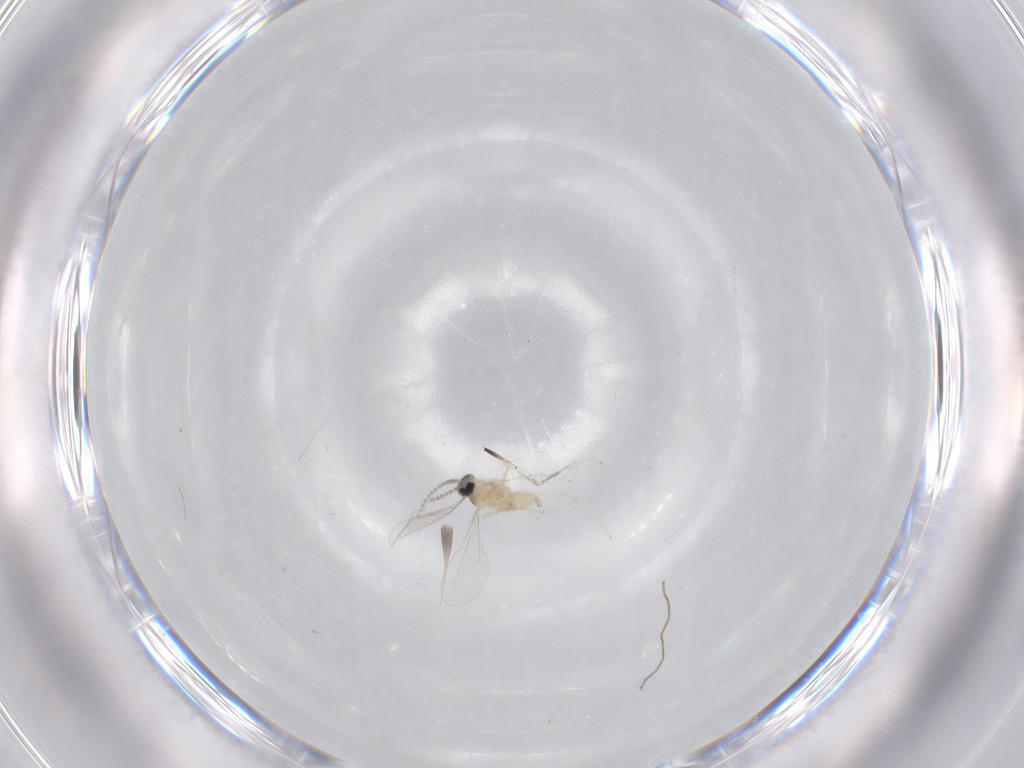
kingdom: Animalia
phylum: Arthropoda
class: Insecta
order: Diptera
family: Cecidomyiidae
